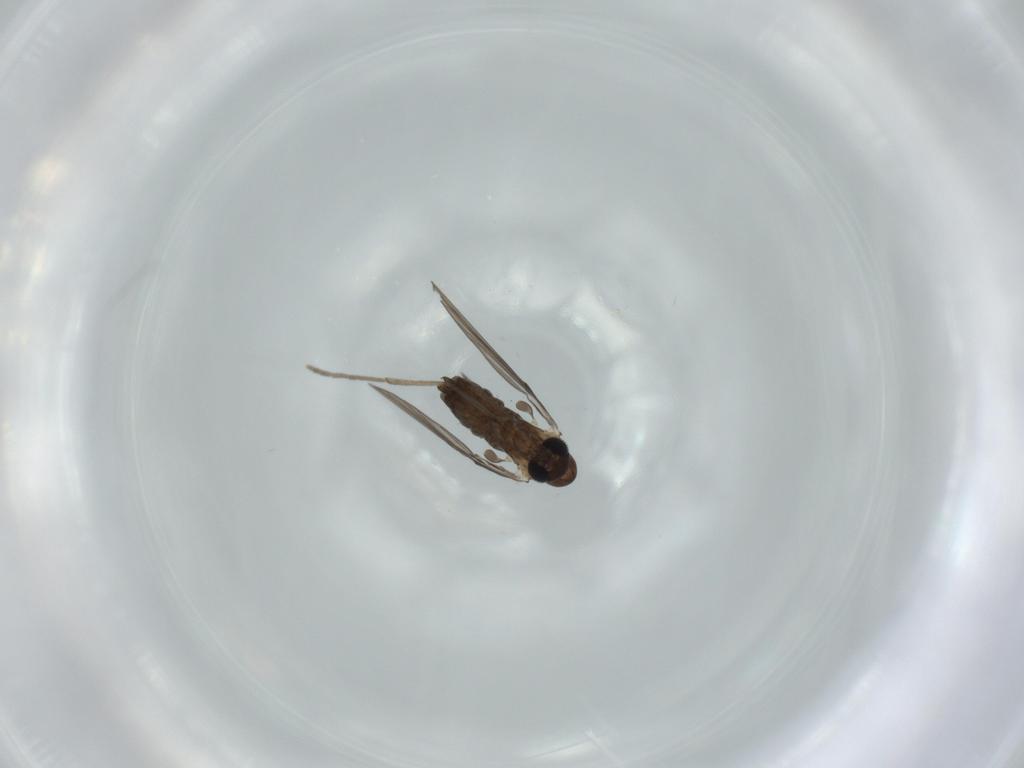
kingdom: Animalia
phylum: Arthropoda
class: Insecta
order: Diptera
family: Psychodidae
